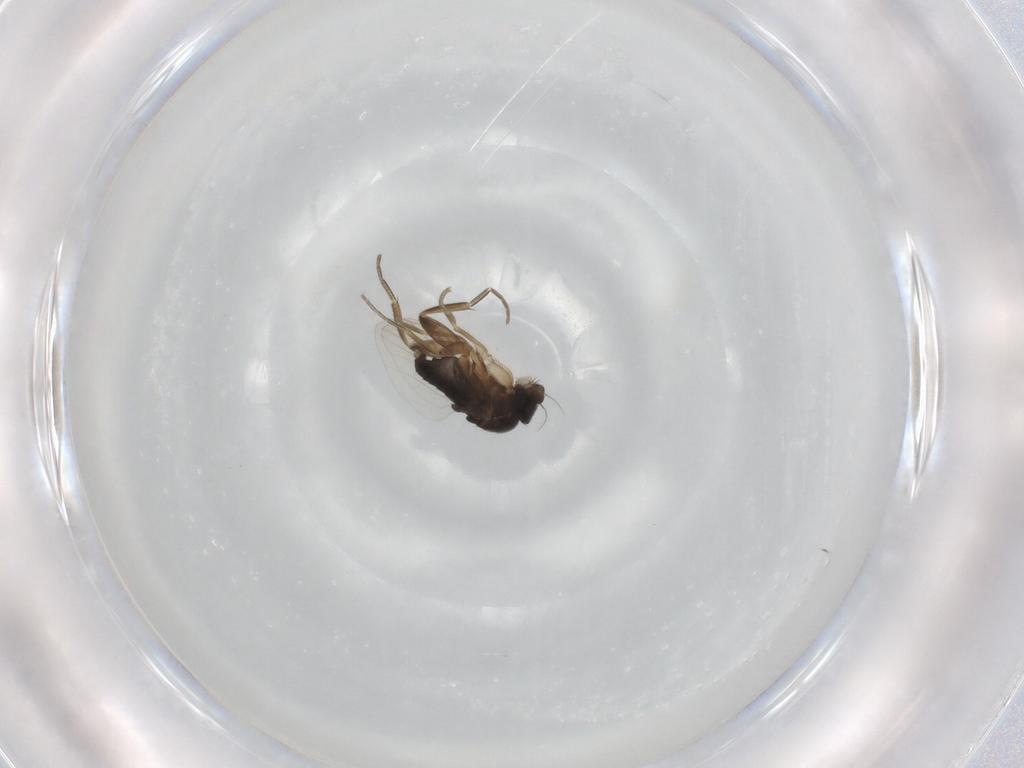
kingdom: Animalia
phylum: Arthropoda
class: Insecta
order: Diptera
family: Phoridae
